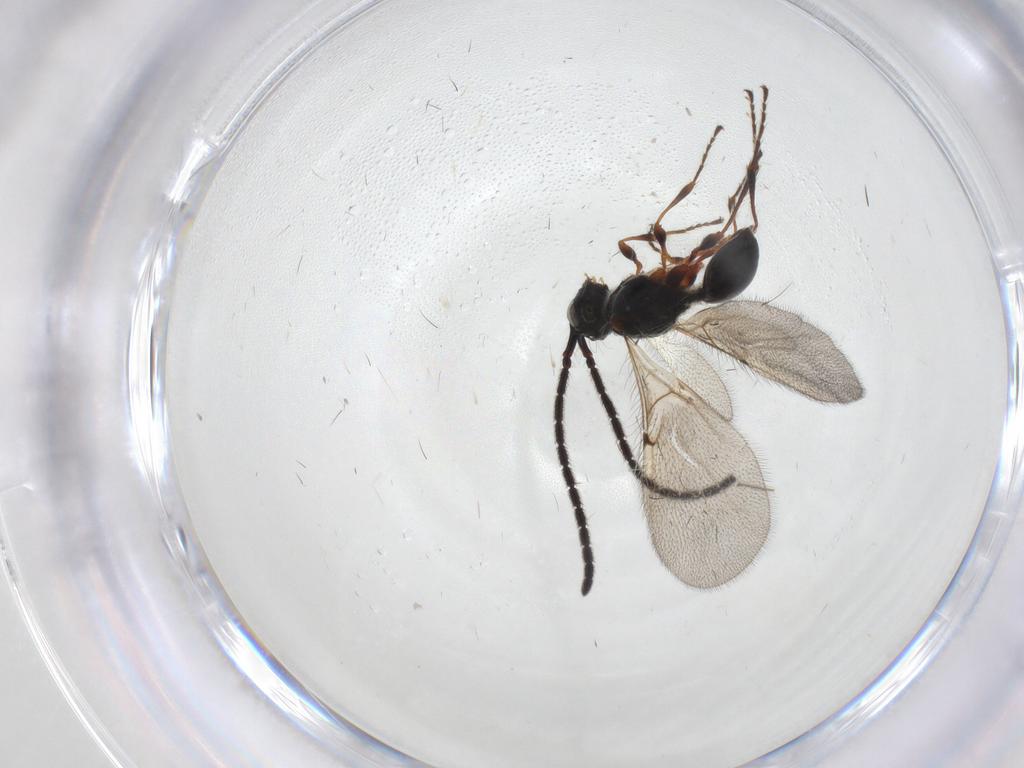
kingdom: Animalia
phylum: Arthropoda
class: Insecta
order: Hymenoptera
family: Diapriidae
